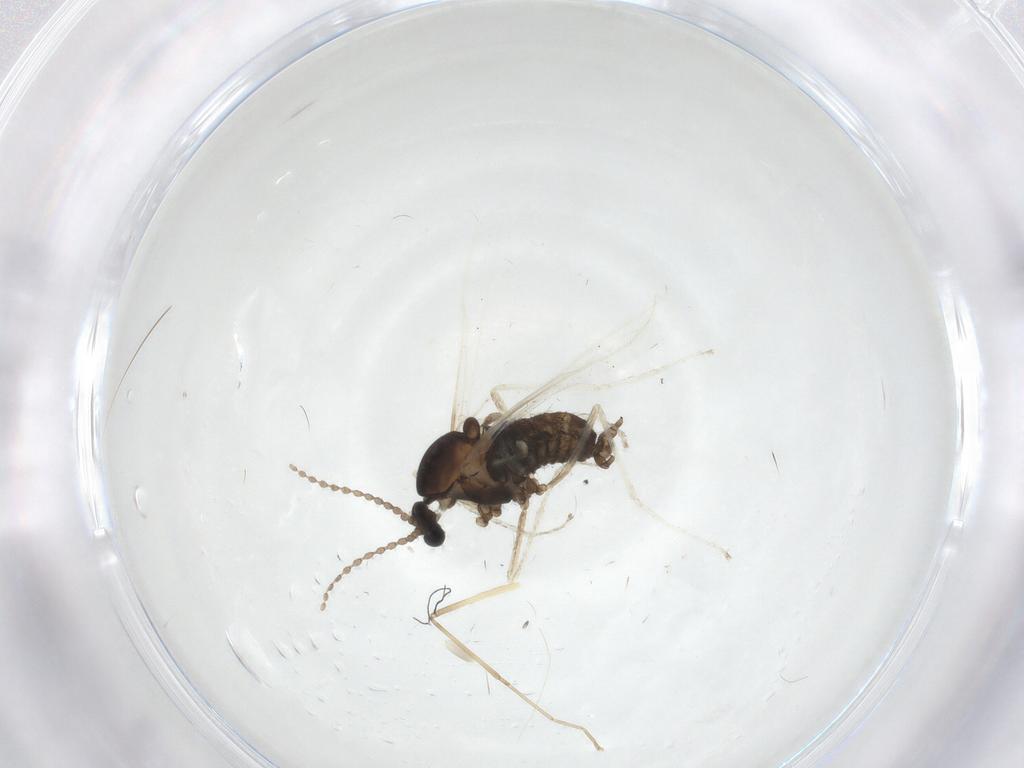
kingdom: Animalia
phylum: Arthropoda
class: Insecta
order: Diptera
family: Cecidomyiidae
